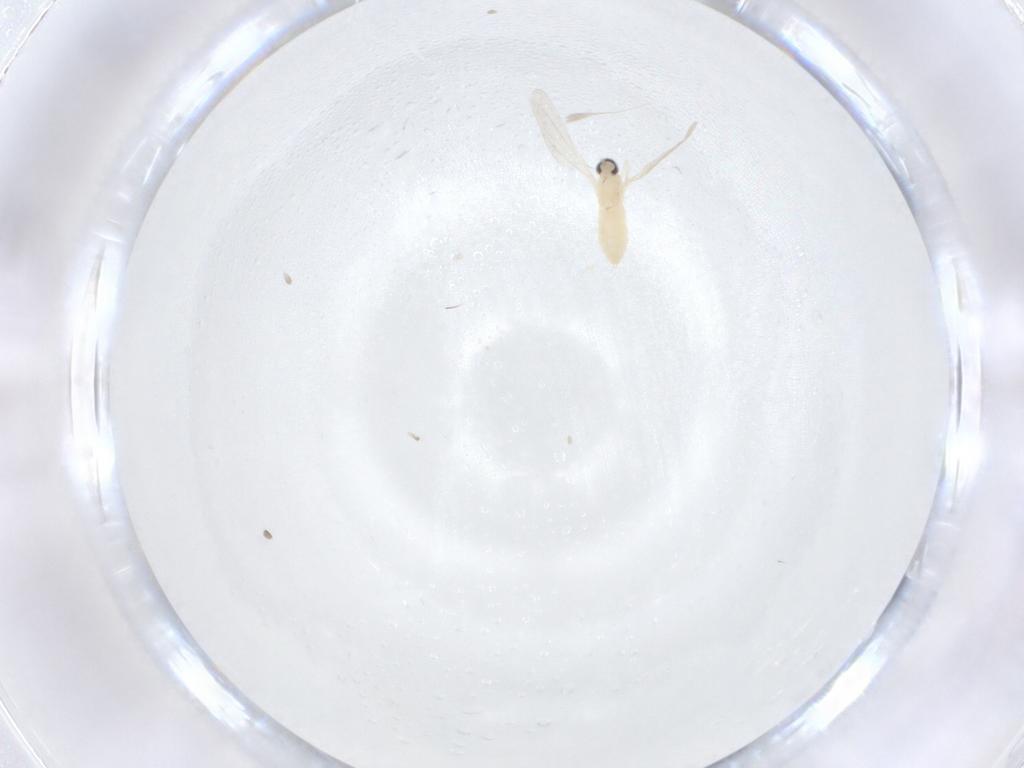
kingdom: Animalia
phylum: Arthropoda
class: Insecta
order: Diptera
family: Cecidomyiidae
